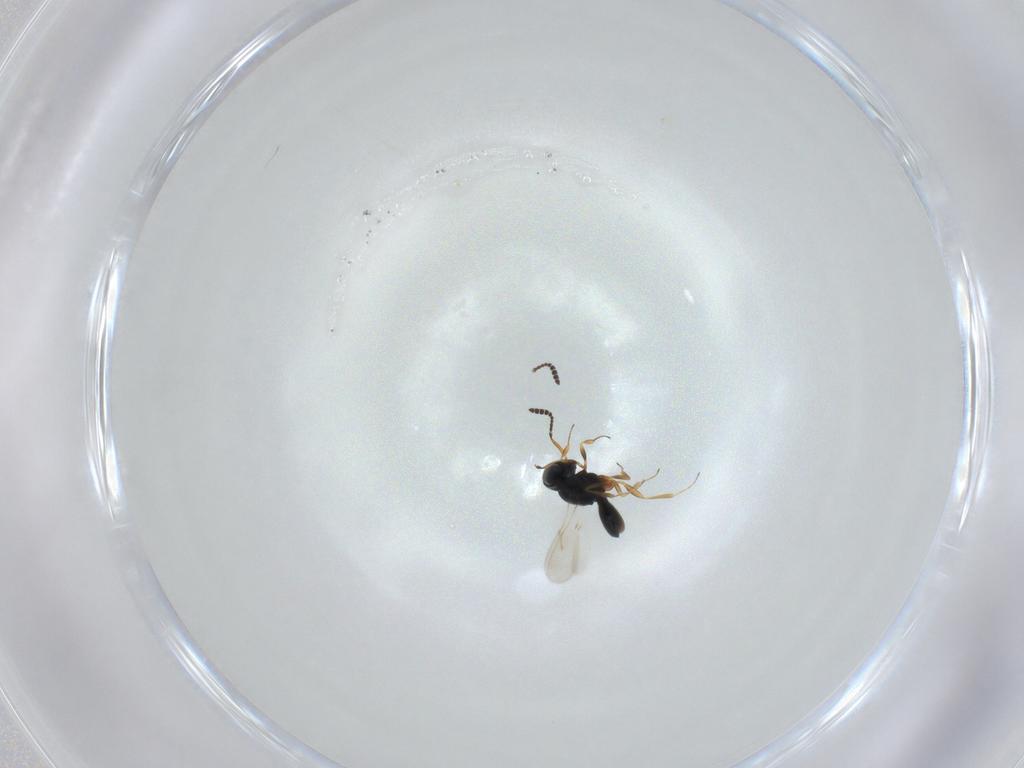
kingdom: Animalia
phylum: Arthropoda
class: Insecta
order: Hymenoptera
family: Scelionidae
